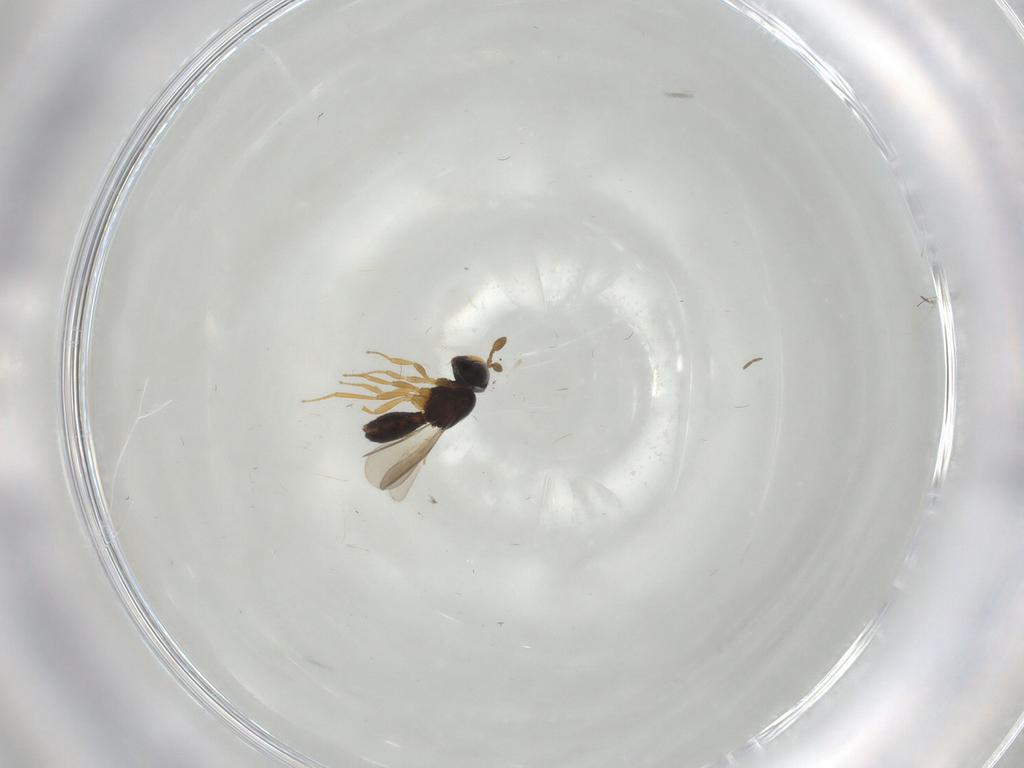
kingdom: Animalia
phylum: Arthropoda
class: Insecta
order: Hymenoptera
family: Scelionidae
